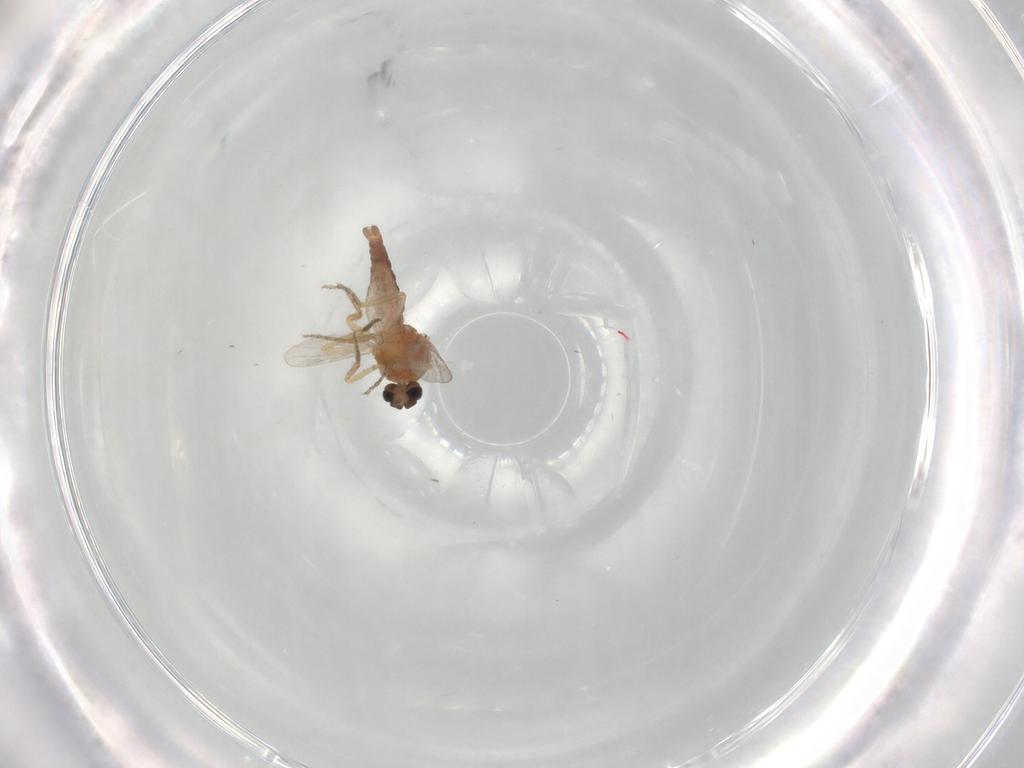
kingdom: Animalia
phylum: Arthropoda
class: Insecta
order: Diptera
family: Ceratopogonidae
